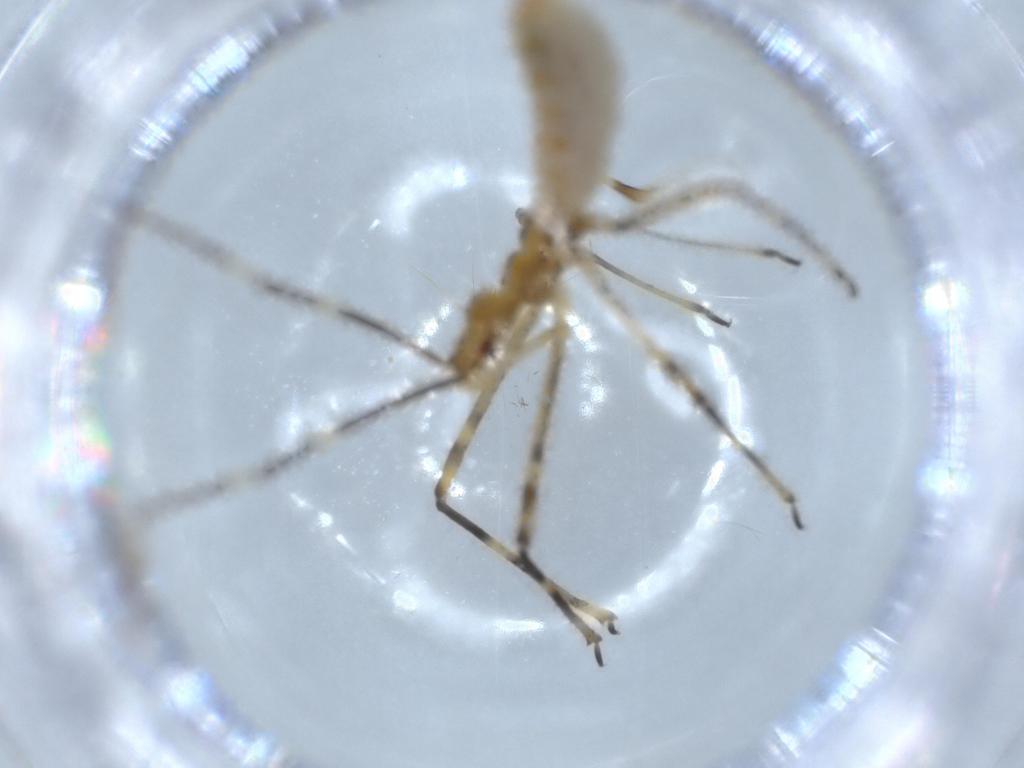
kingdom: Animalia
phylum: Arthropoda
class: Insecta
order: Hemiptera
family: Reduviidae
